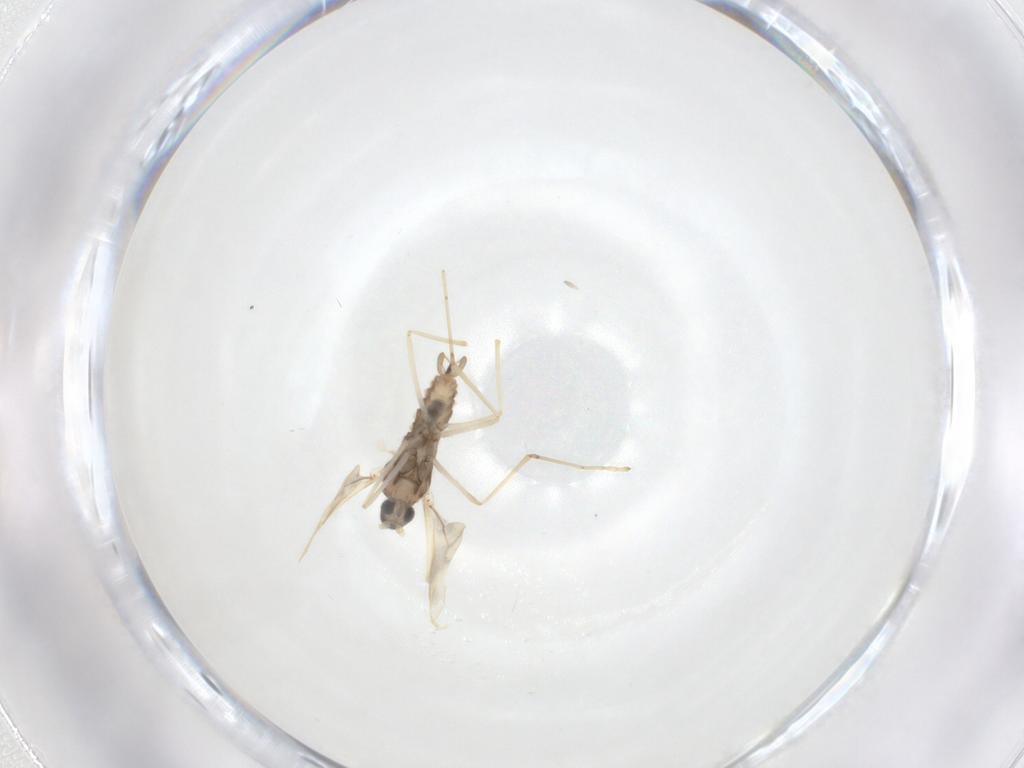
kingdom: Animalia
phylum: Arthropoda
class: Insecta
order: Diptera
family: Cecidomyiidae
